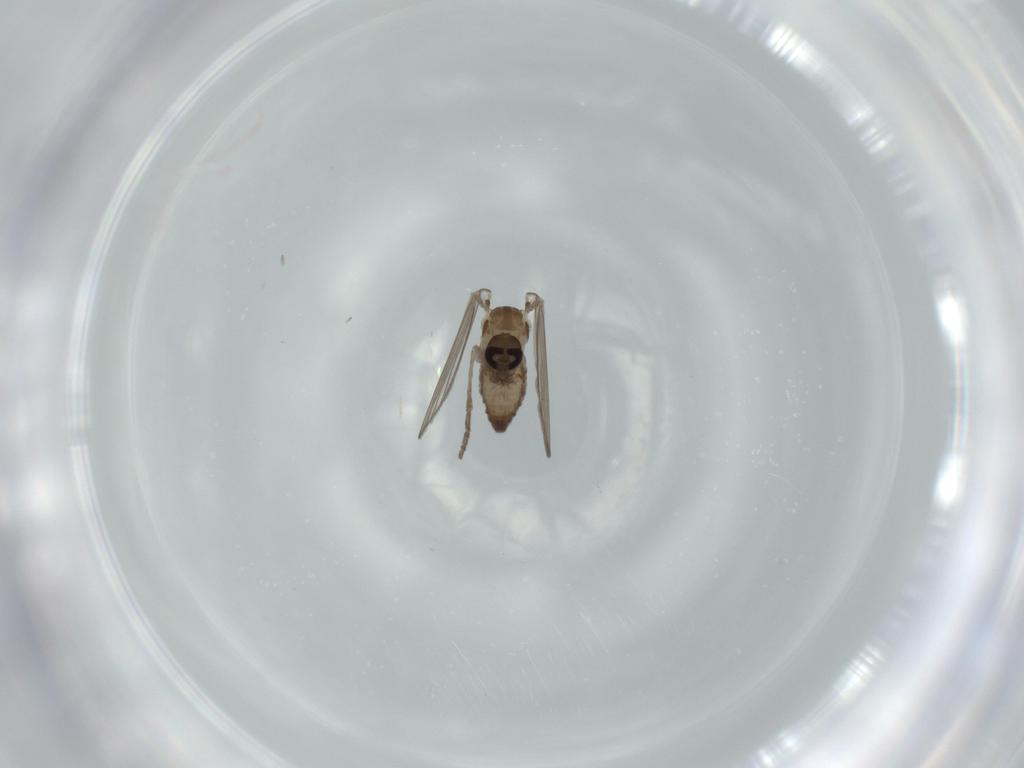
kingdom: Animalia
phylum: Arthropoda
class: Insecta
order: Diptera
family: Psychodidae
